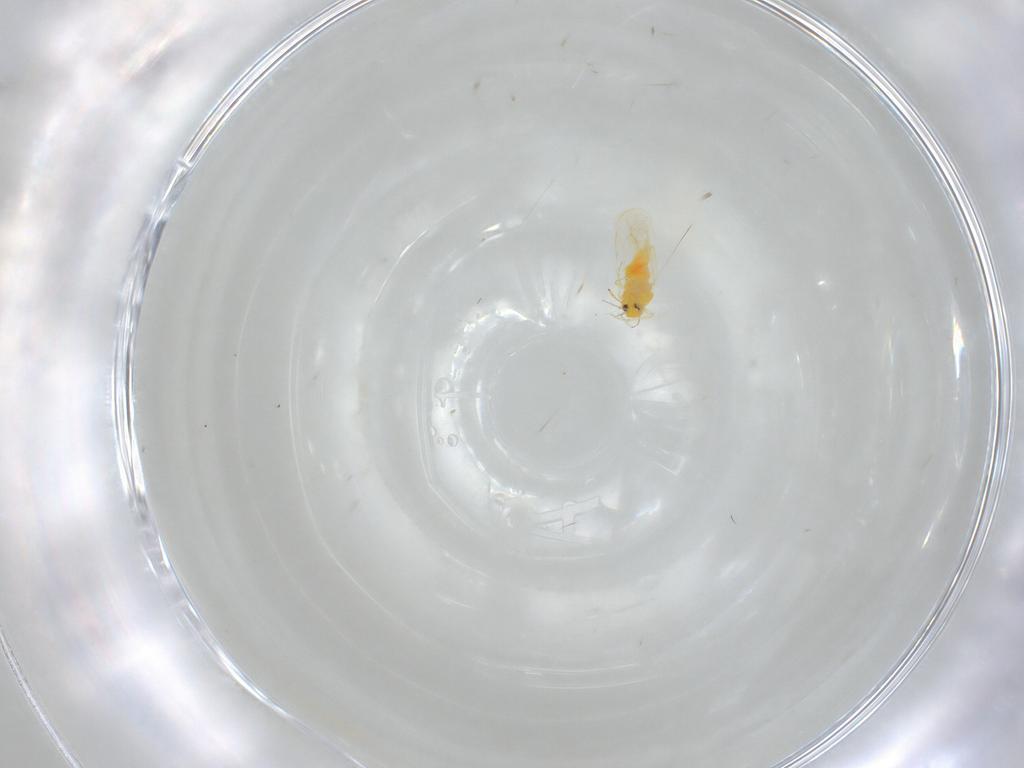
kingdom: Animalia
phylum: Arthropoda
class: Insecta
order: Hemiptera
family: Aleyrodidae
